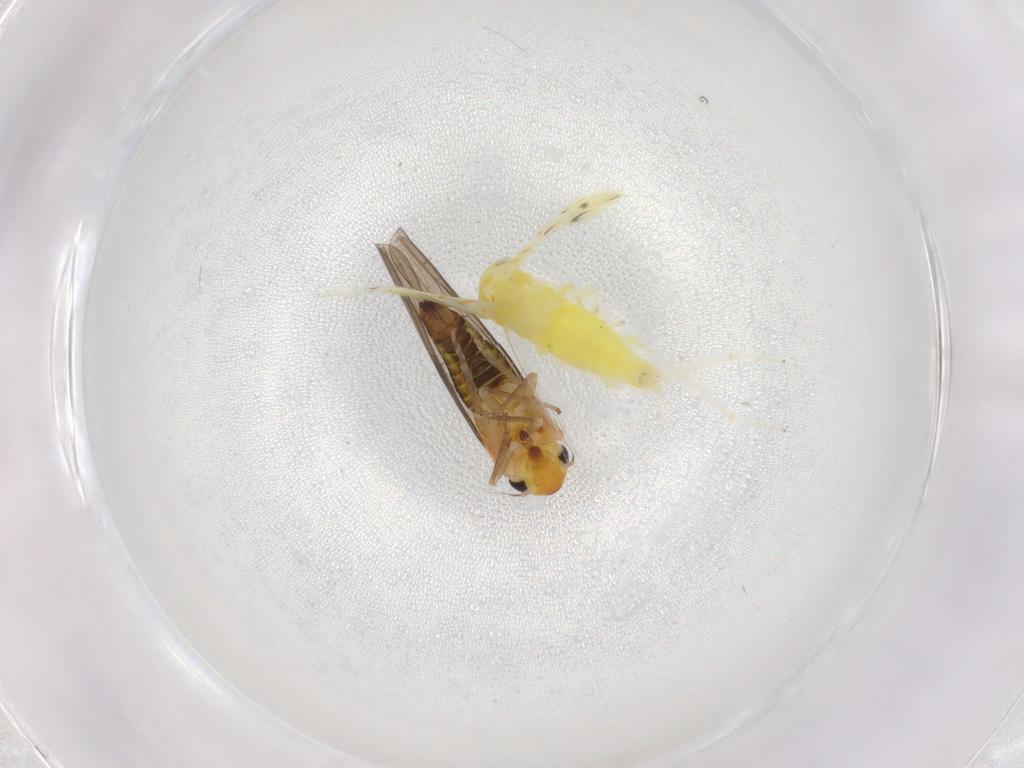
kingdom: Animalia
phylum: Arthropoda
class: Insecta
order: Hemiptera
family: Cicadellidae
